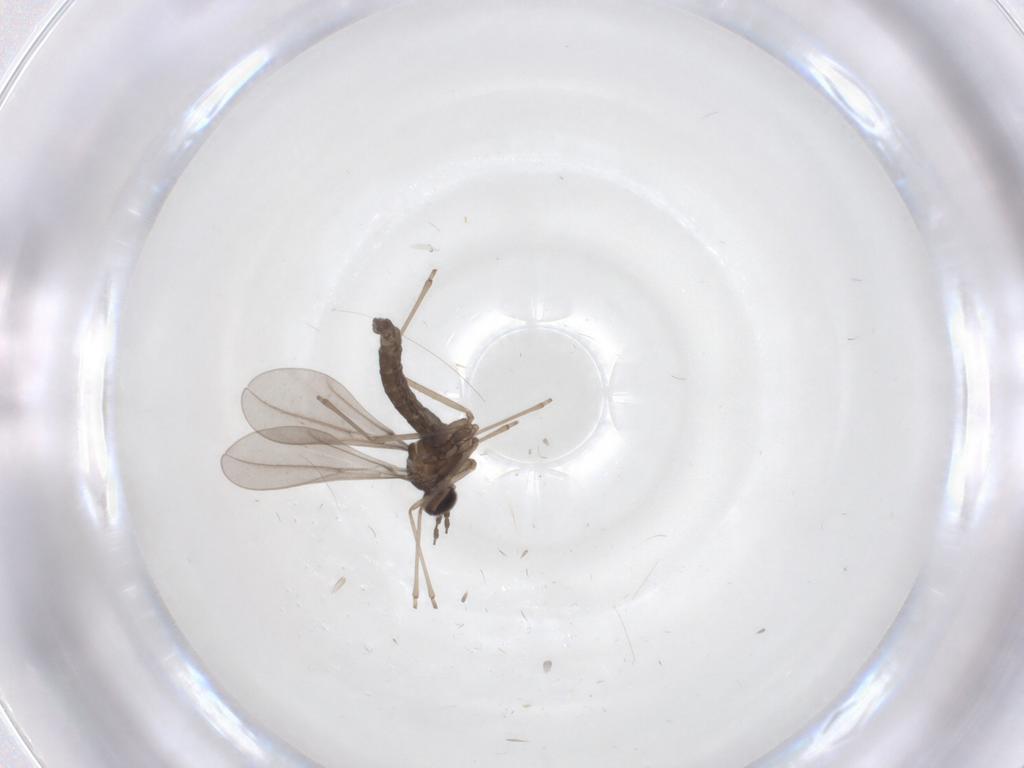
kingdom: Animalia
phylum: Arthropoda
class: Insecta
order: Diptera
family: Cecidomyiidae
